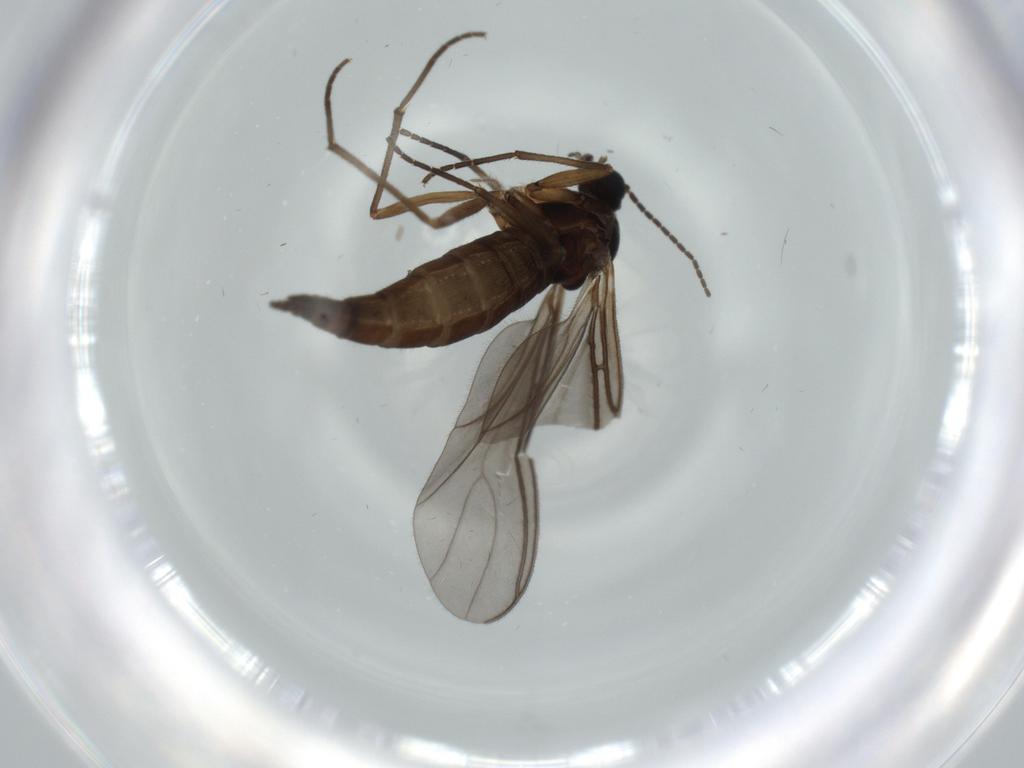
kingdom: Animalia
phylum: Arthropoda
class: Insecta
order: Diptera
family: Sciaridae
